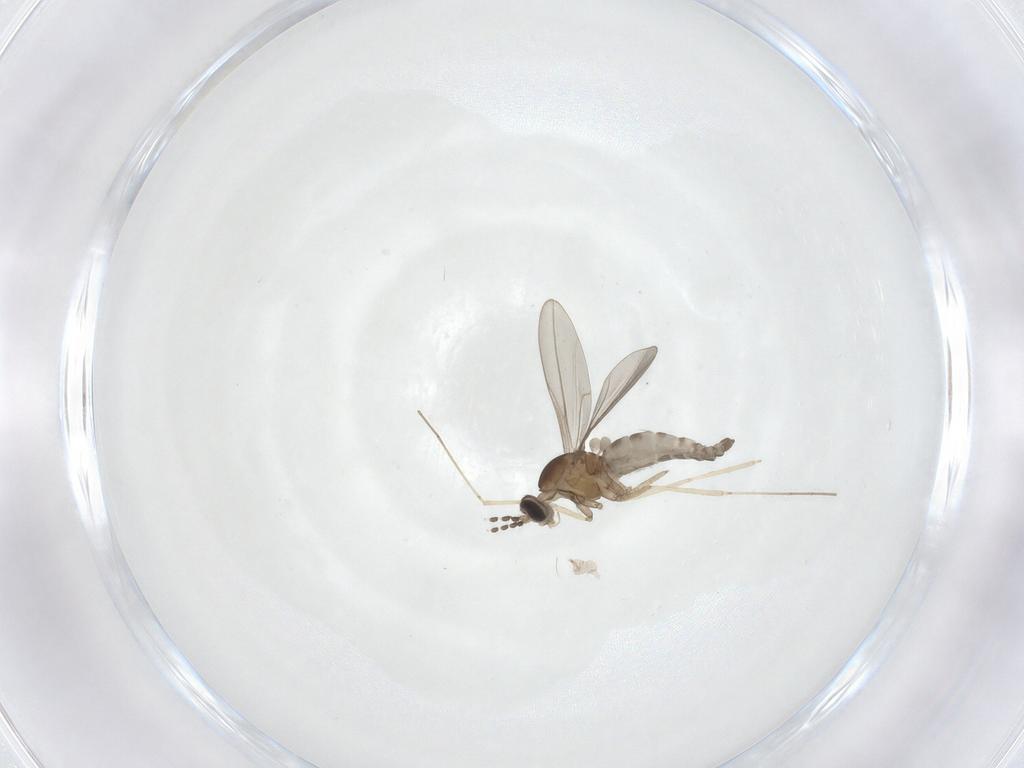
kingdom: Animalia
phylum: Arthropoda
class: Insecta
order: Diptera
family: Cecidomyiidae
